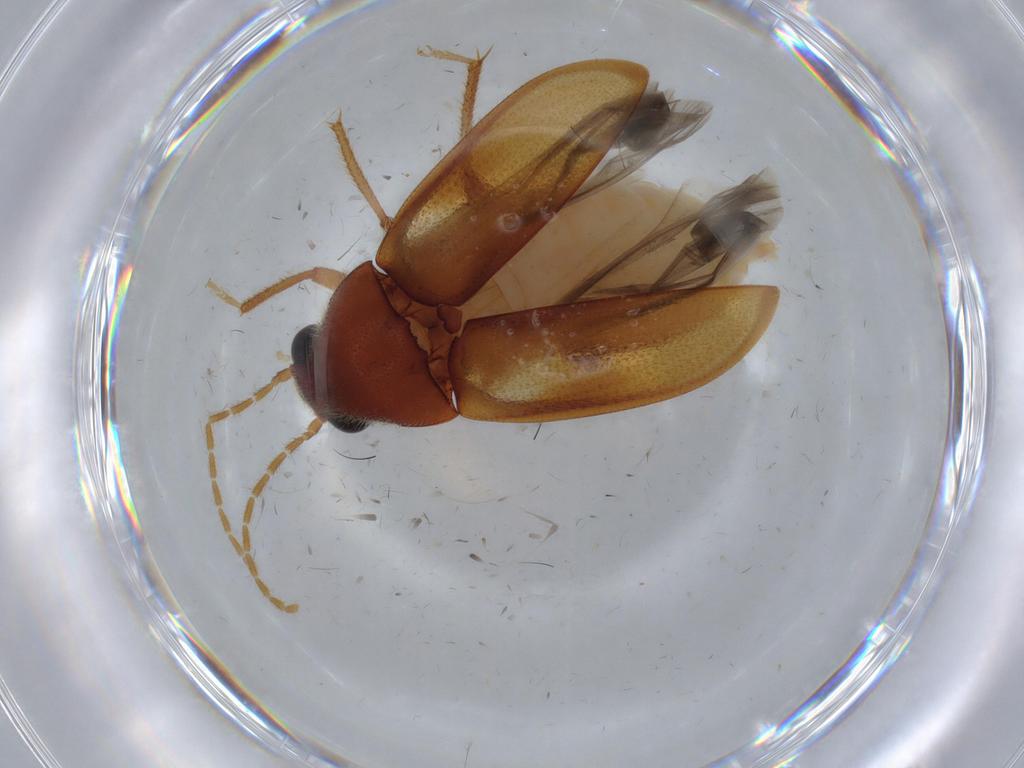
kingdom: Animalia
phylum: Arthropoda
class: Insecta
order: Coleoptera
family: Ptilodactylidae
